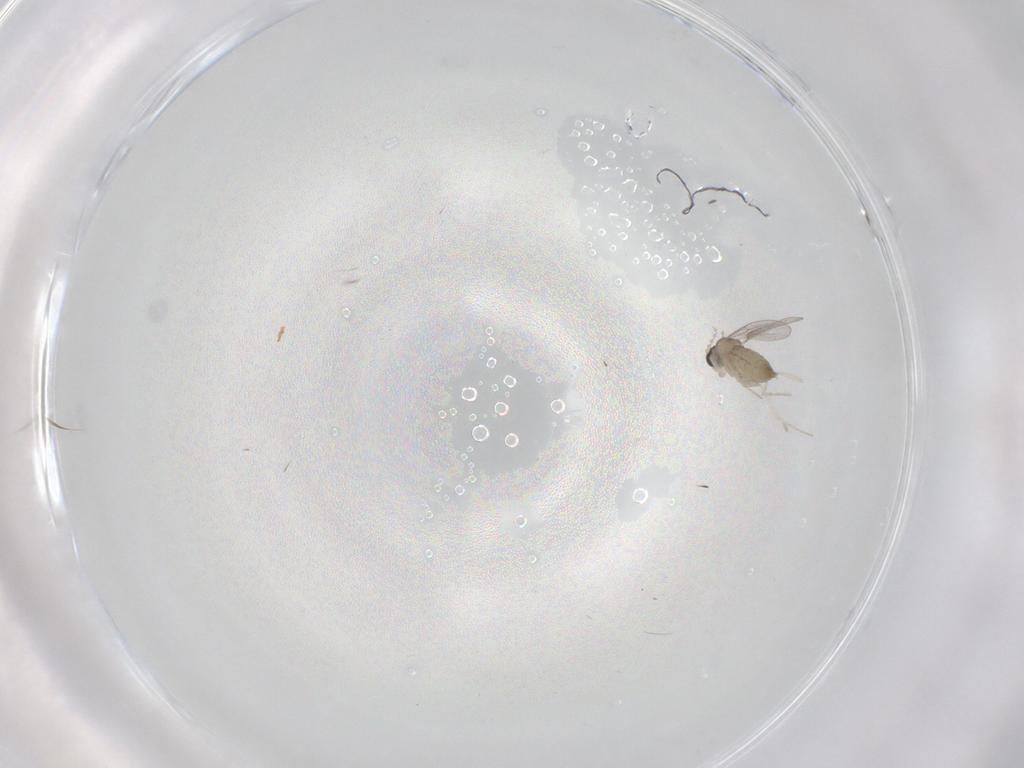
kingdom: Animalia
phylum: Arthropoda
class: Insecta
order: Diptera
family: Cecidomyiidae
